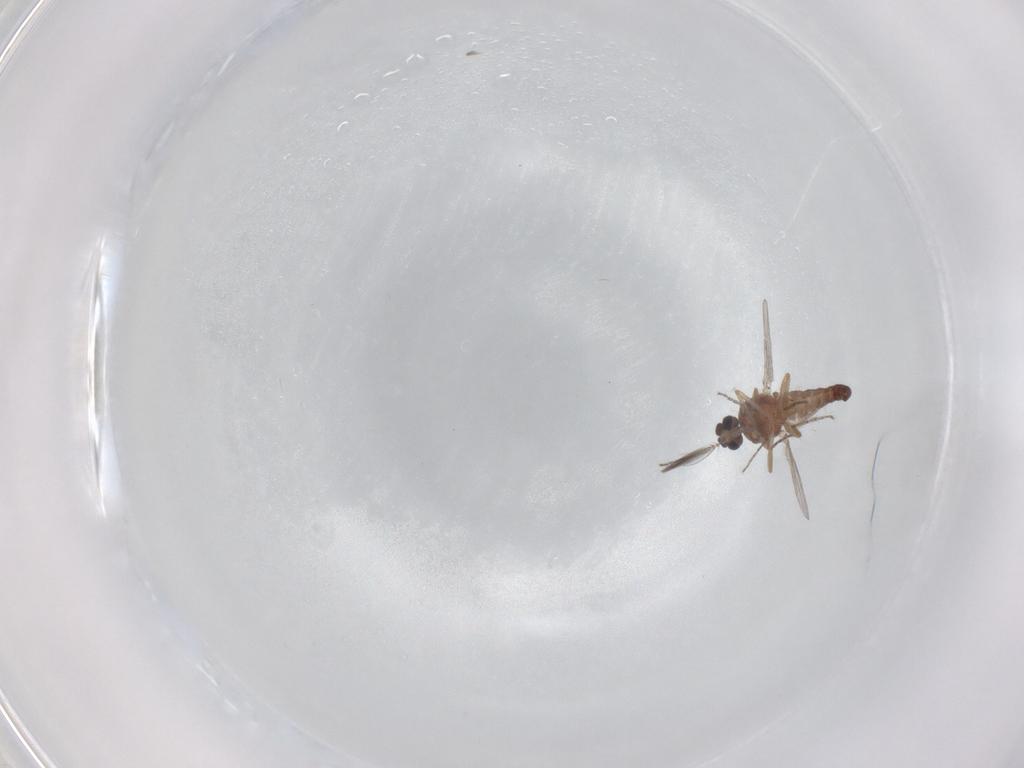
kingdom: Animalia
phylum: Arthropoda
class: Insecta
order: Diptera
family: Ceratopogonidae
